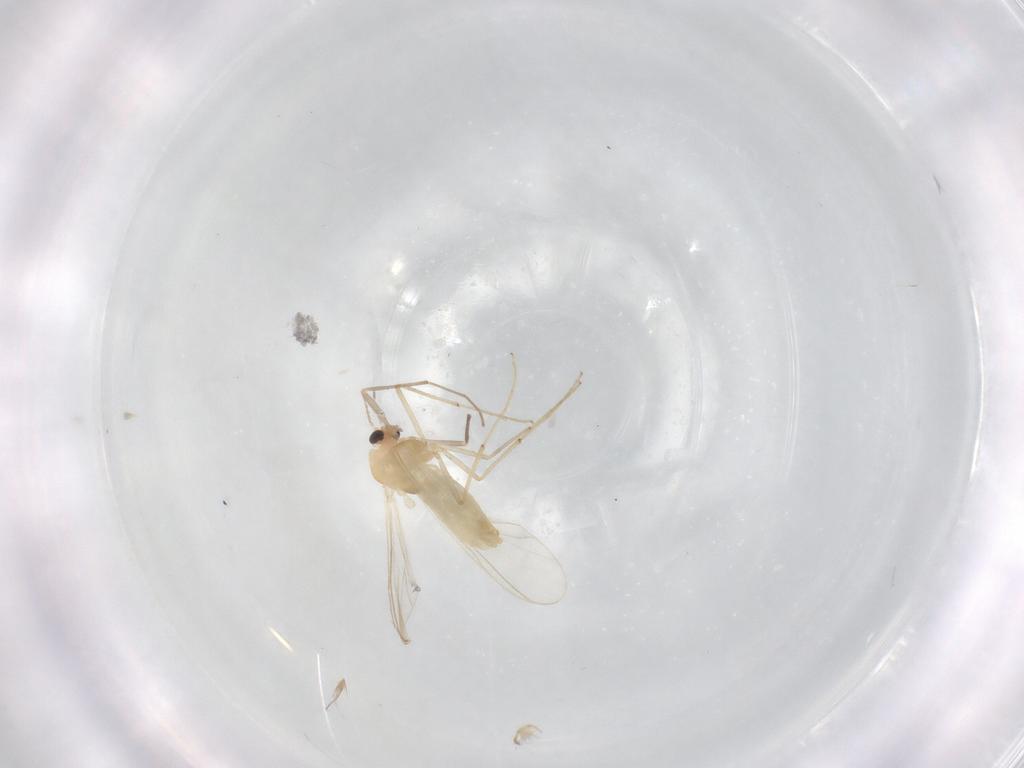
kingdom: Animalia
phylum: Arthropoda
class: Insecta
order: Diptera
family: Chironomidae
